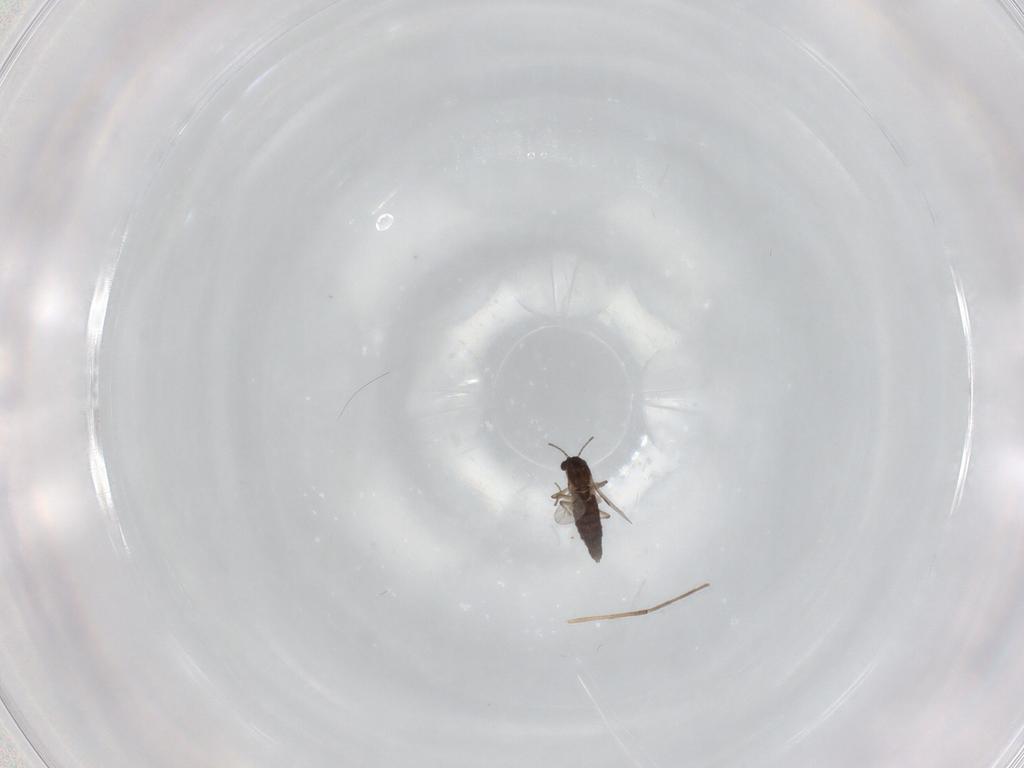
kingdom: Animalia
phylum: Arthropoda
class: Insecta
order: Diptera
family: Chironomidae
